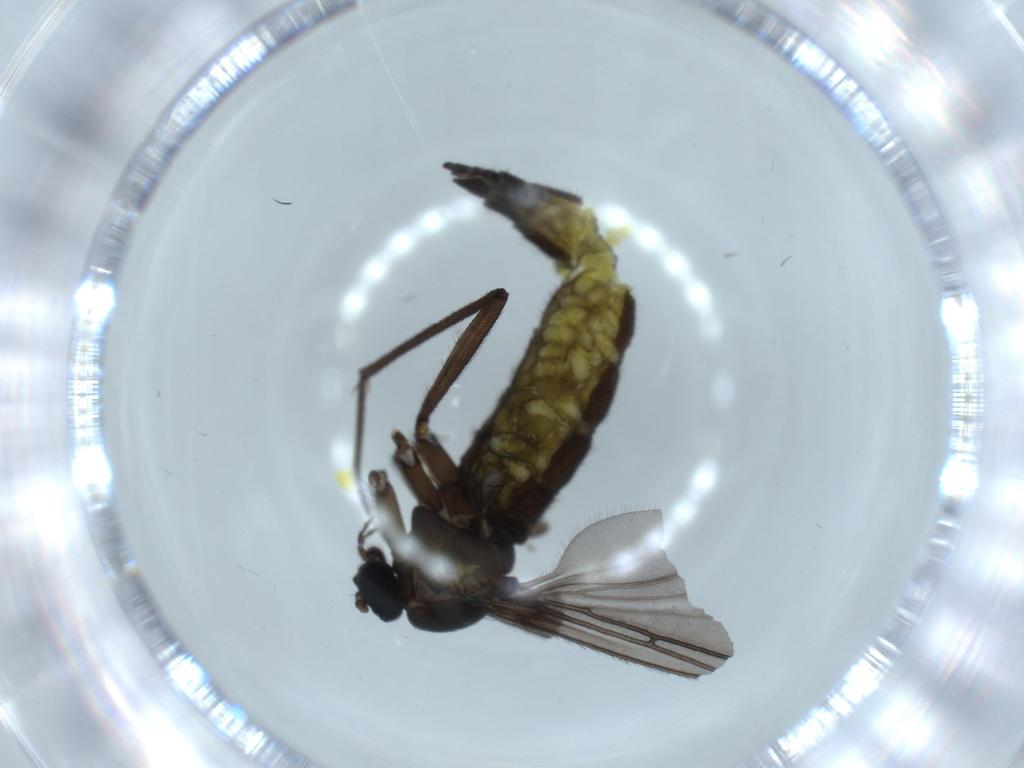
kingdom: Animalia
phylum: Arthropoda
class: Insecta
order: Diptera
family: Sciaridae
